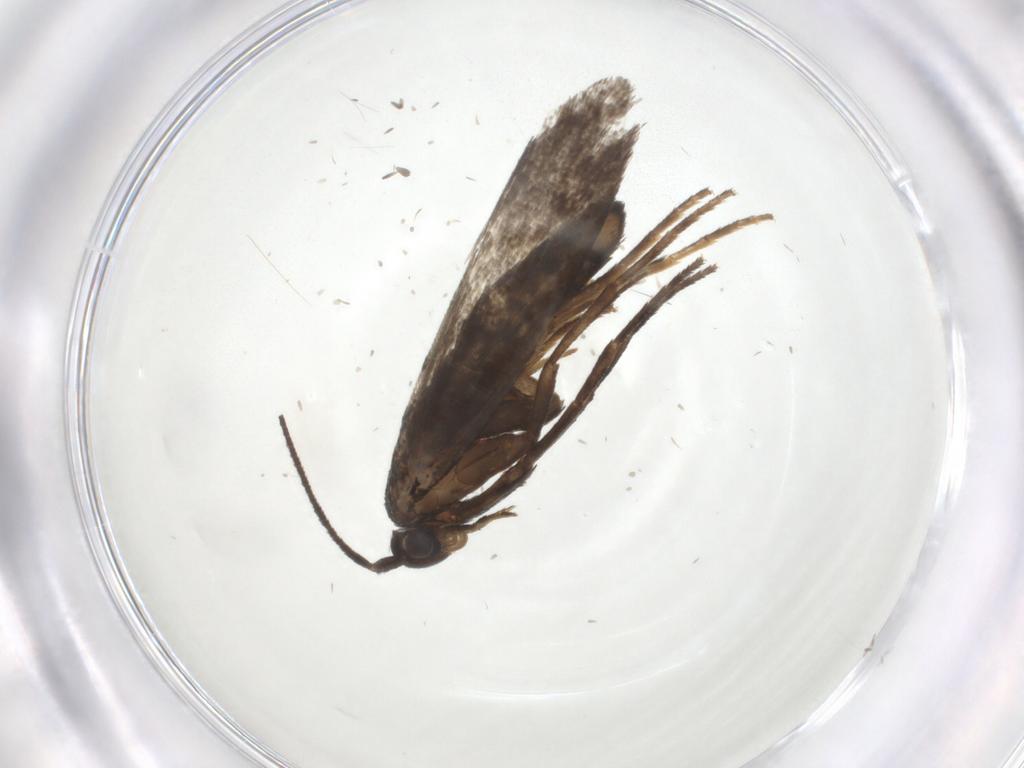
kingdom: Animalia
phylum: Arthropoda
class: Insecta
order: Lepidoptera
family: Argyresthiidae
